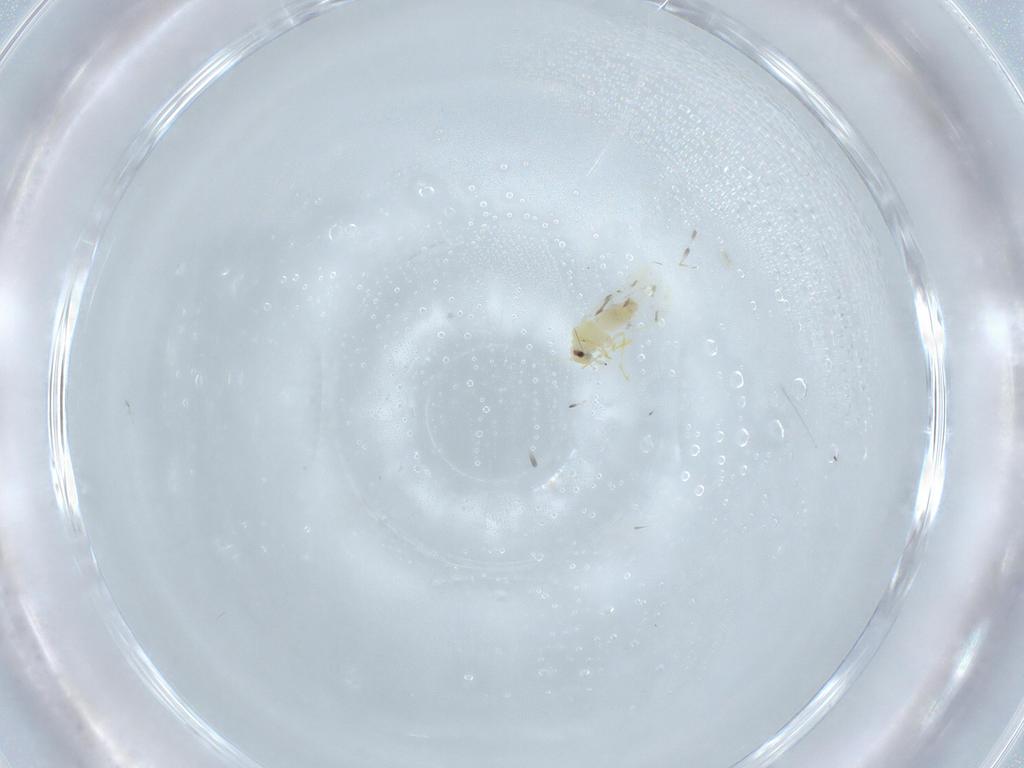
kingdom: Animalia
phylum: Arthropoda
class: Insecta
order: Hemiptera
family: Aleyrodidae
